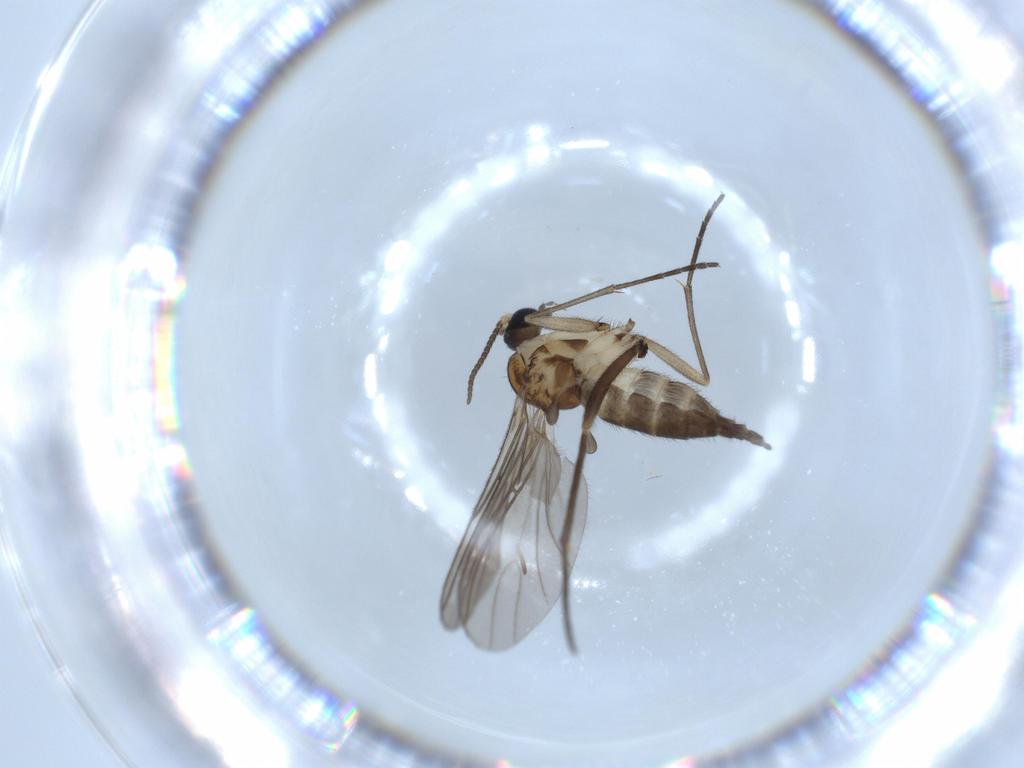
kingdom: Animalia
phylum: Arthropoda
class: Insecta
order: Diptera
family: Sciaridae
